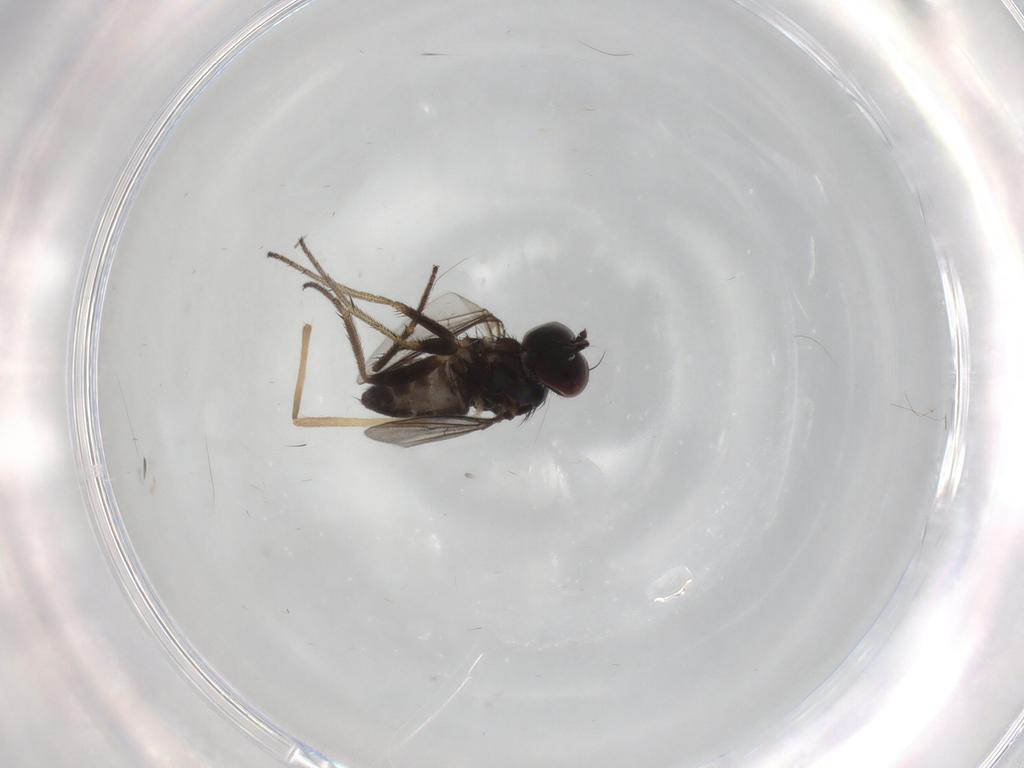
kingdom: Animalia
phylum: Arthropoda
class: Insecta
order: Diptera
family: Dolichopodidae
